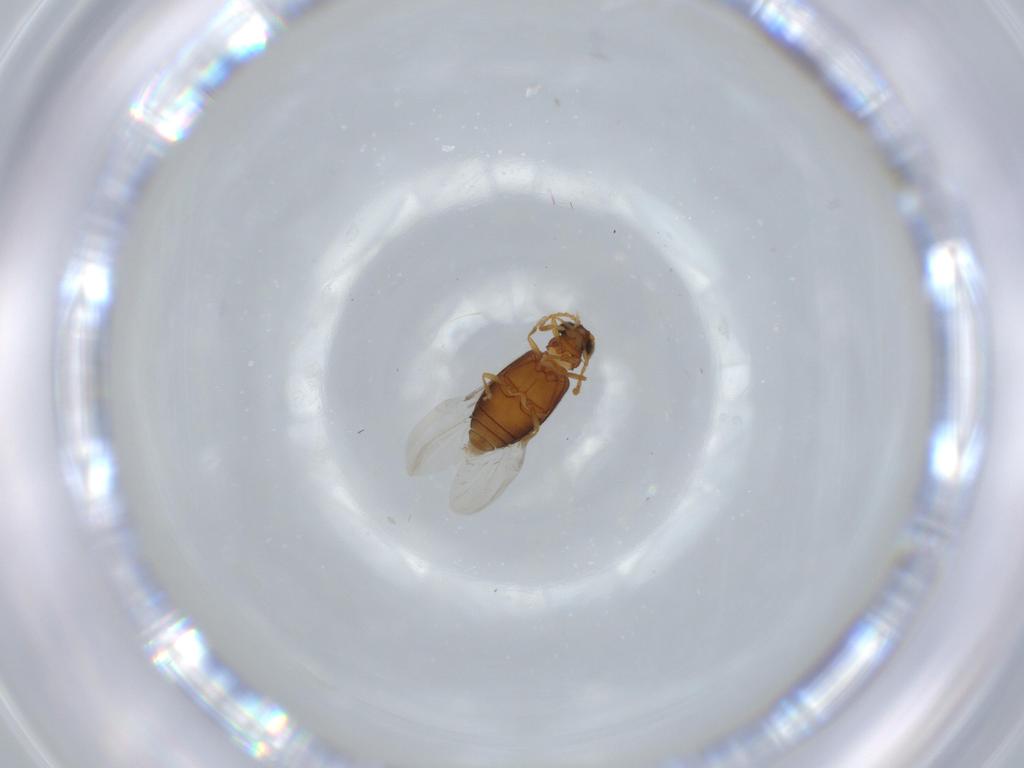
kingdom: Animalia
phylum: Arthropoda
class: Insecta
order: Coleoptera
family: Aderidae
